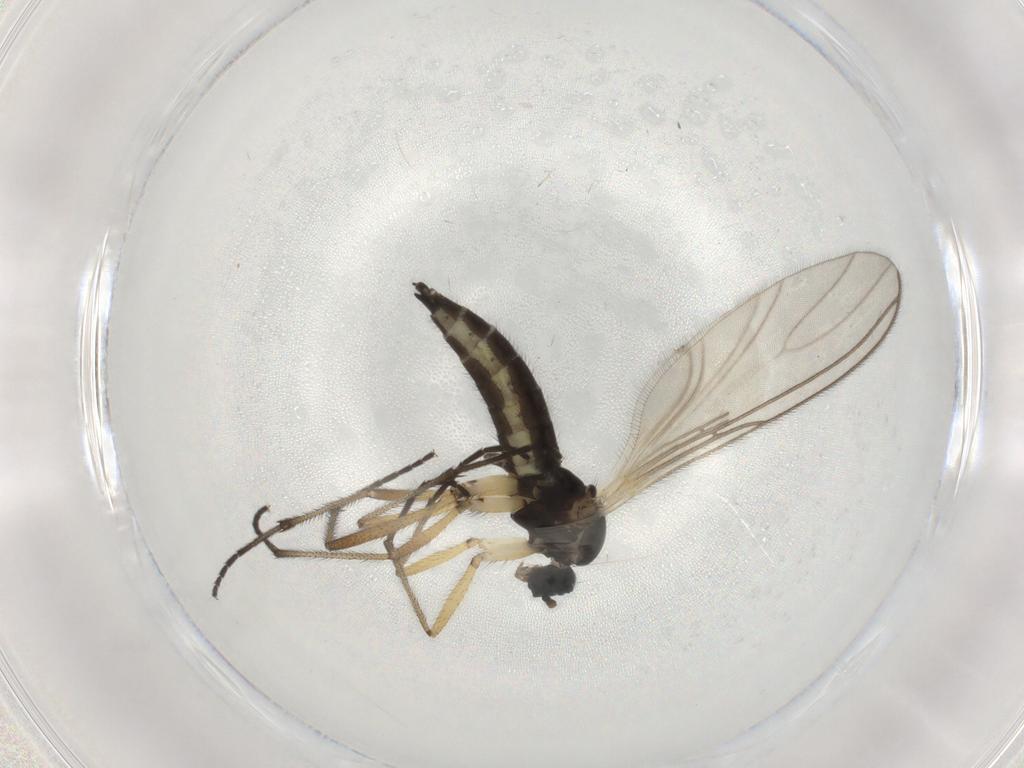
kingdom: Animalia
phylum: Arthropoda
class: Insecta
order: Diptera
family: Sciaridae
